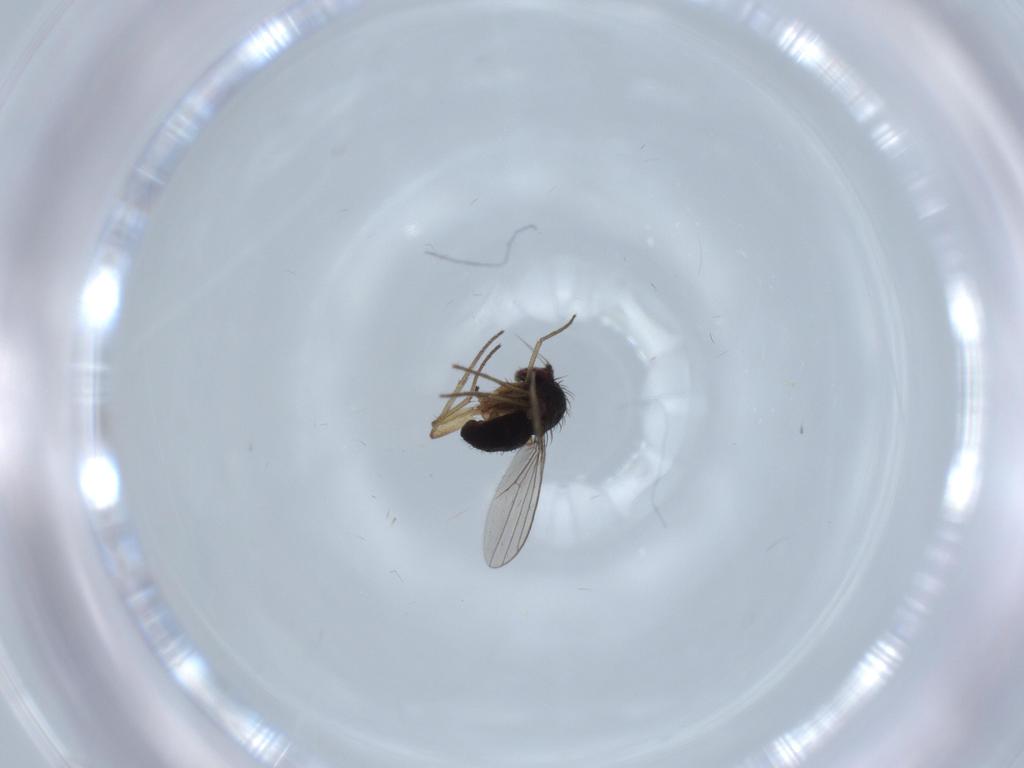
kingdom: Animalia
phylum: Arthropoda
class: Insecta
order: Diptera
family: Dolichopodidae
